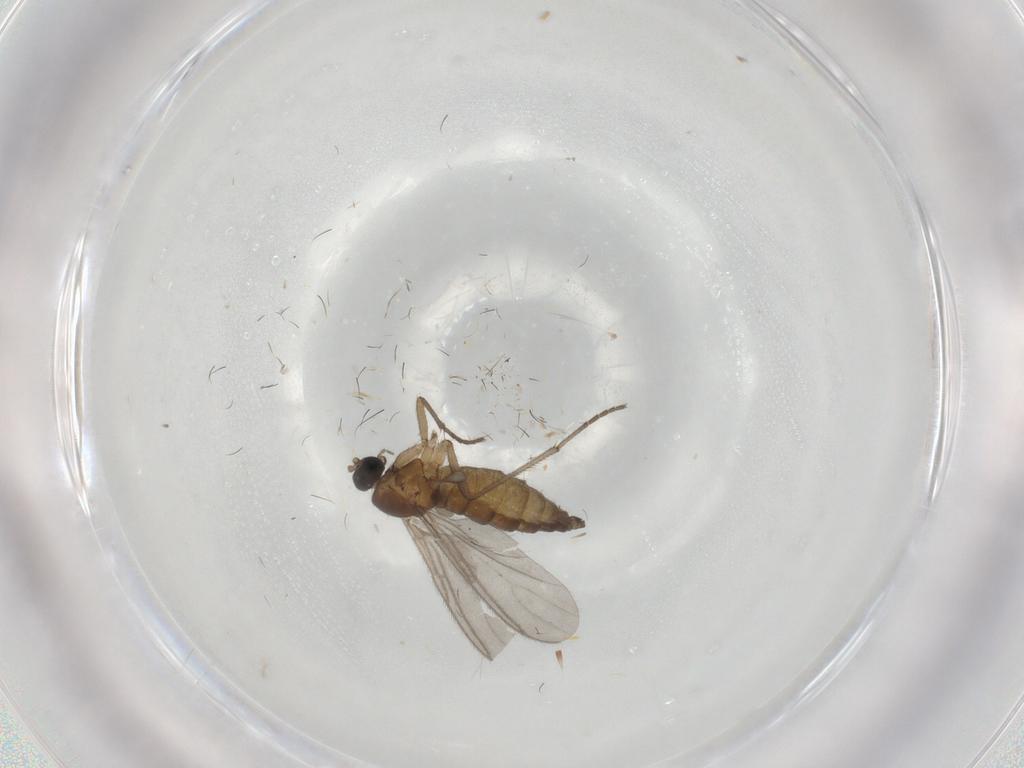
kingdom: Animalia
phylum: Arthropoda
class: Insecta
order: Diptera
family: Sciaridae
